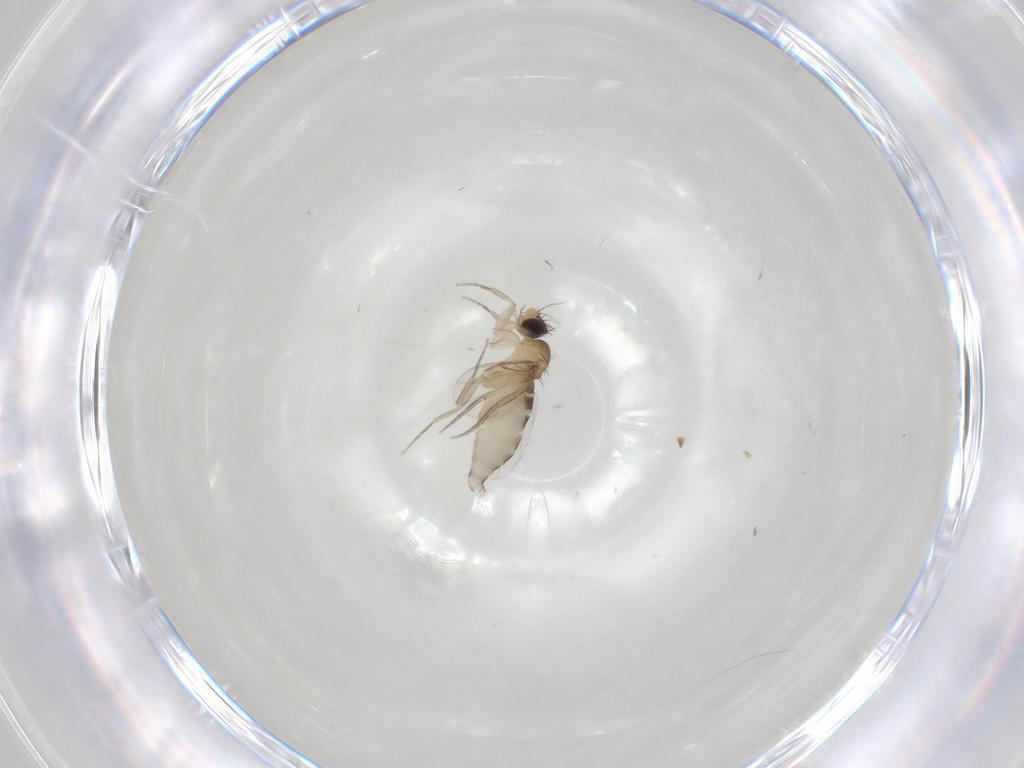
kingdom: Animalia
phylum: Arthropoda
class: Insecta
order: Diptera
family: Phoridae
